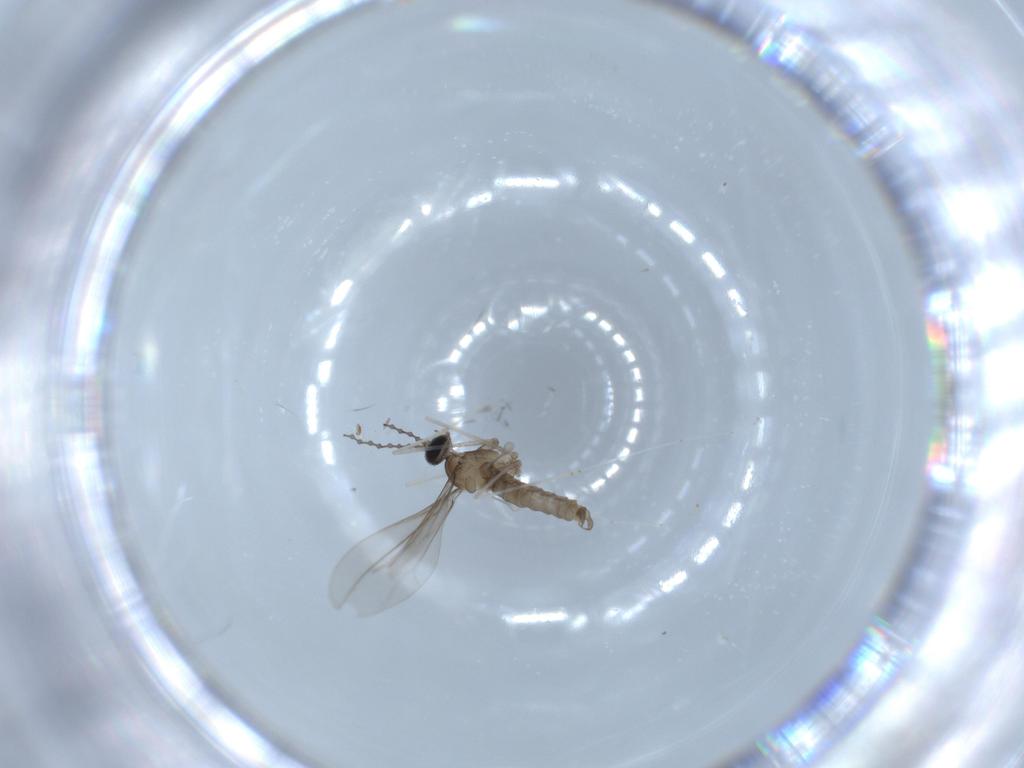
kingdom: Animalia
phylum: Arthropoda
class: Insecta
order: Diptera
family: Cecidomyiidae
